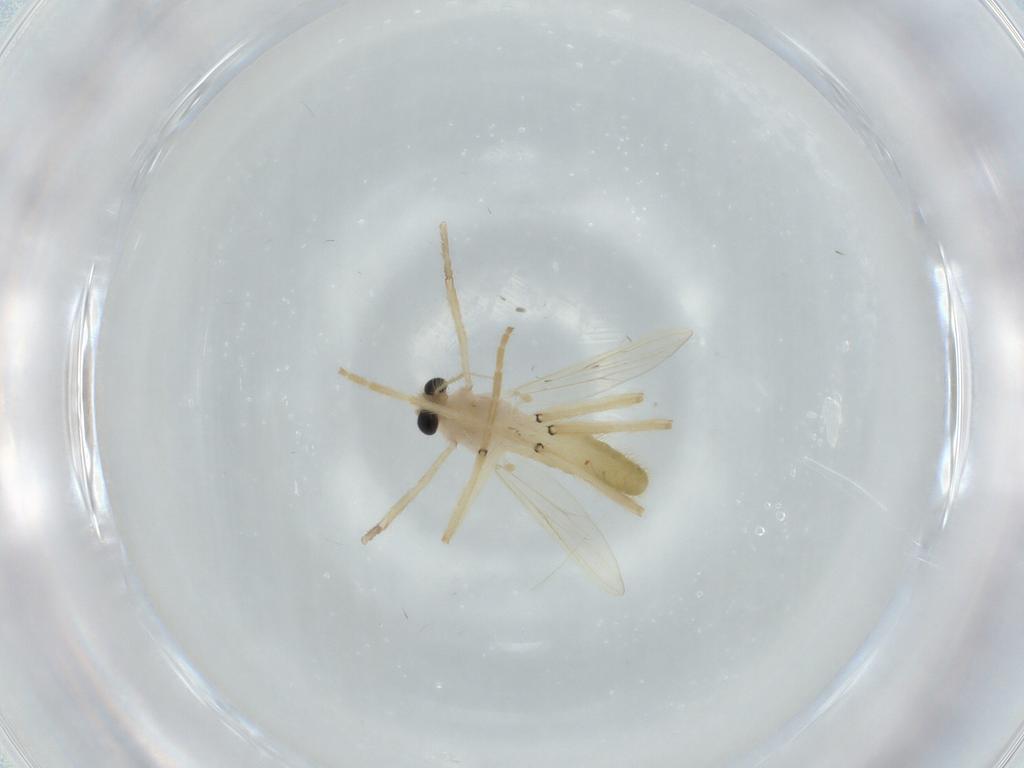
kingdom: Animalia
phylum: Arthropoda
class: Insecta
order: Diptera
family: Chironomidae
